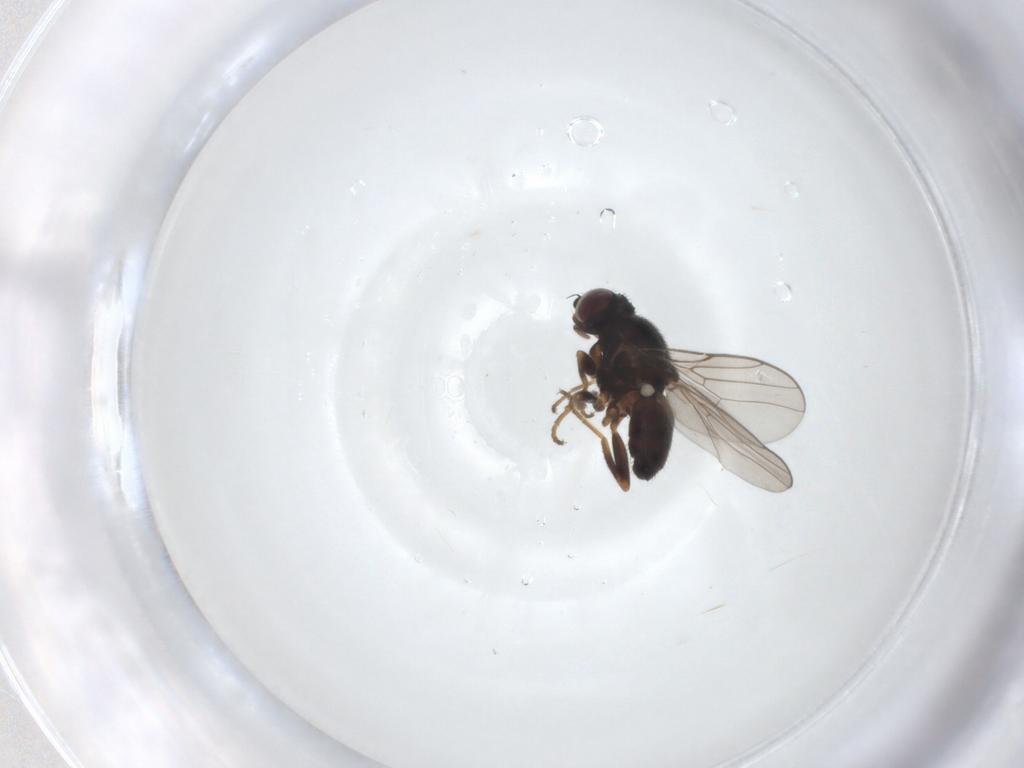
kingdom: Animalia
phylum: Arthropoda
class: Insecta
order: Diptera
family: Chloropidae
